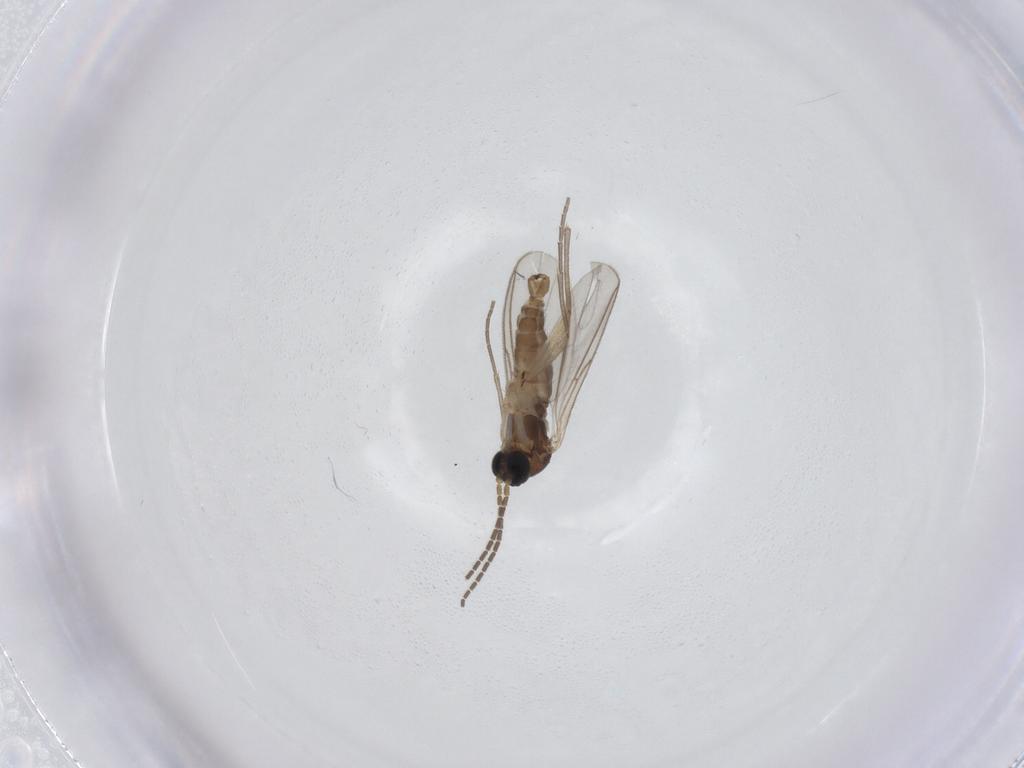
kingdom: Animalia
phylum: Arthropoda
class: Insecta
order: Diptera
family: Sciaridae
